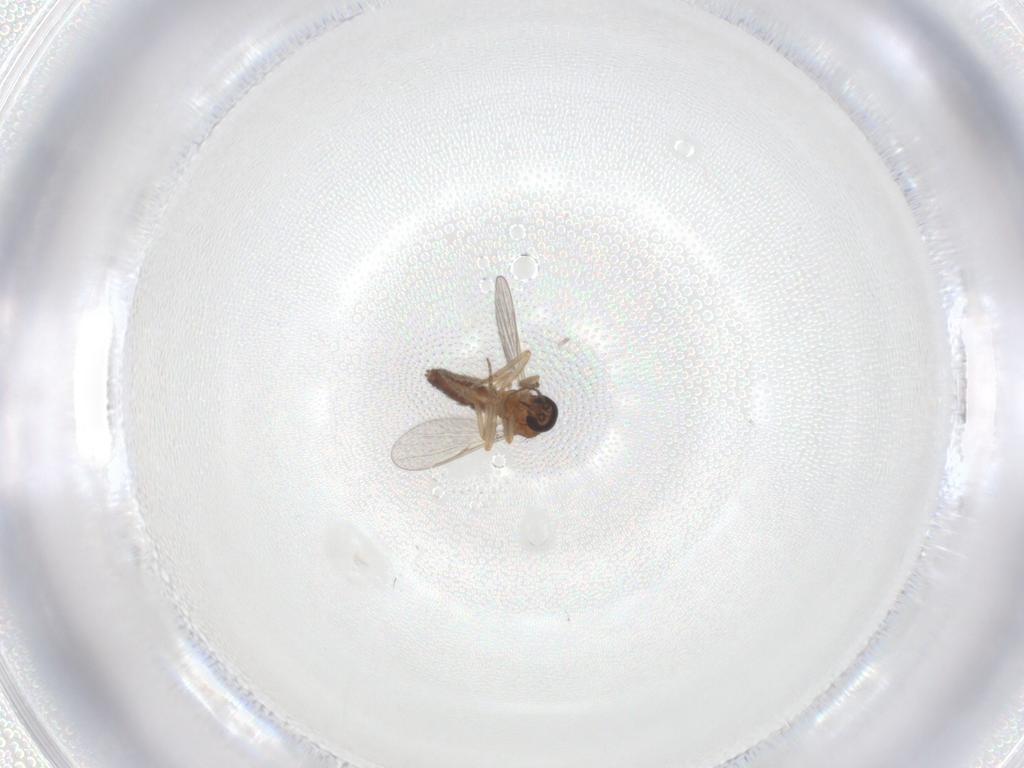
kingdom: Animalia
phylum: Arthropoda
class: Insecta
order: Diptera
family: Ceratopogonidae
